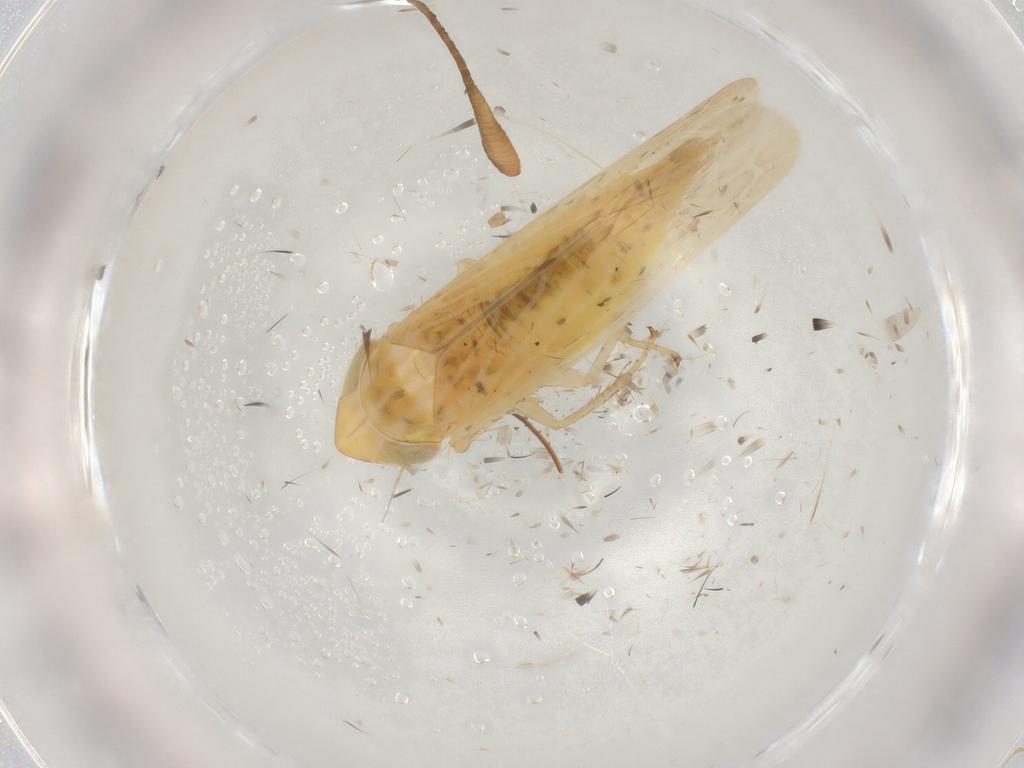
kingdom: Animalia
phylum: Arthropoda
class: Insecta
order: Hemiptera
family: Cicadellidae
